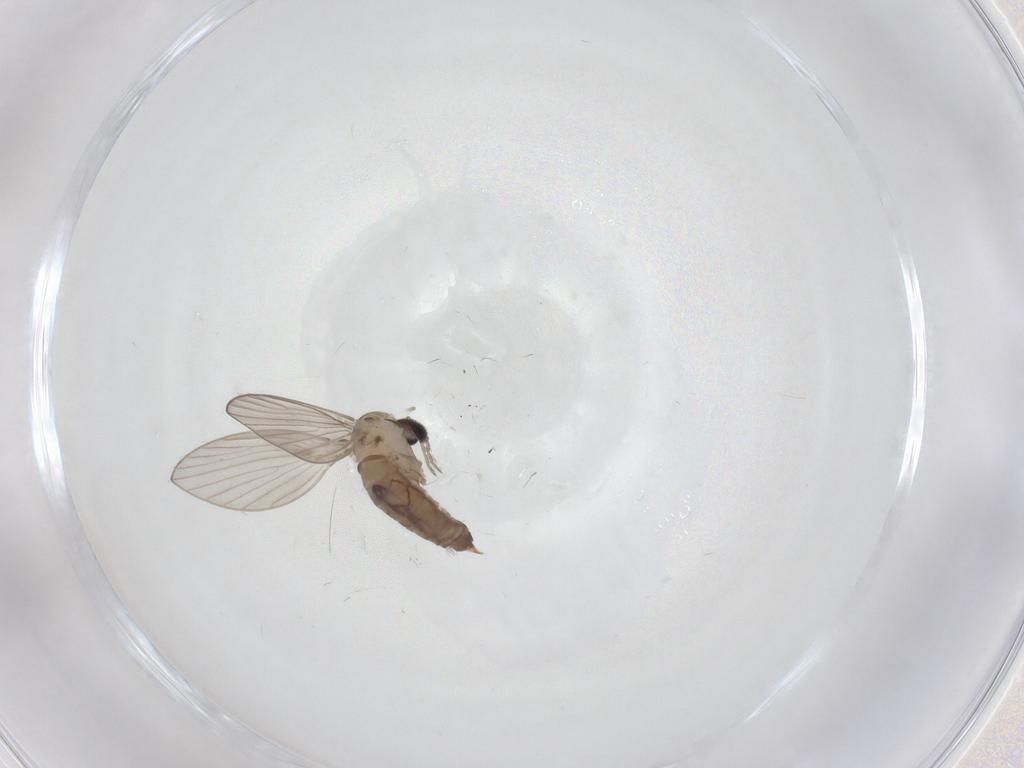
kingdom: Animalia
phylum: Arthropoda
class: Insecta
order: Diptera
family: Psychodidae
